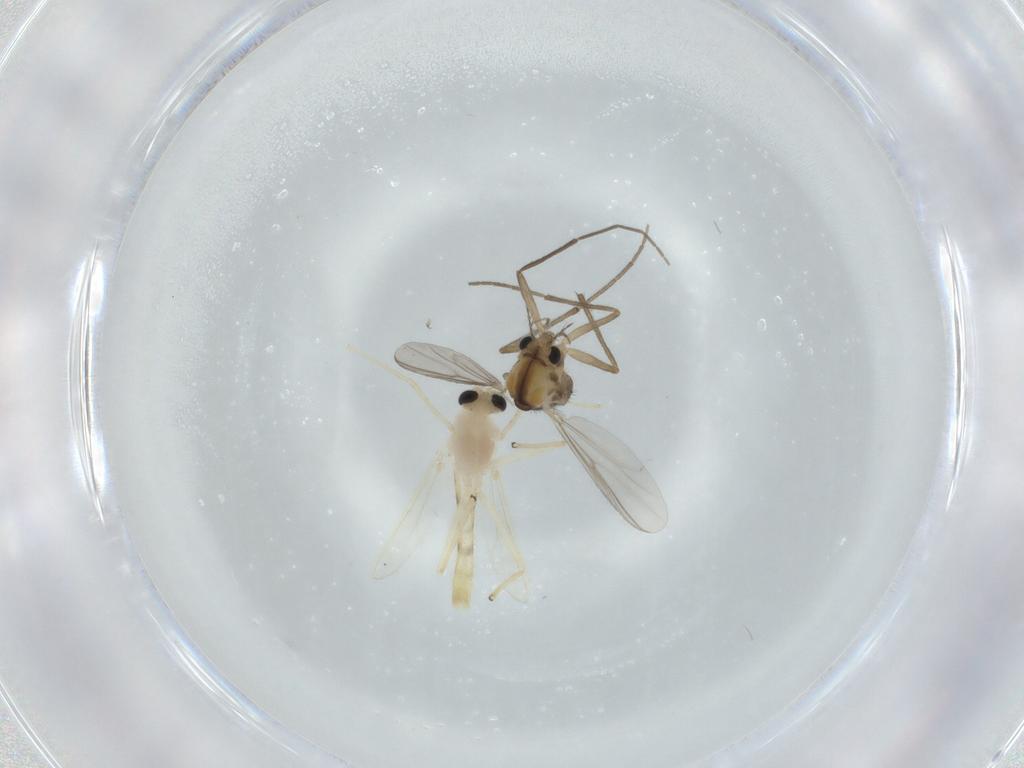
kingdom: Animalia
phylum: Arthropoda
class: Insecta
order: Diptera
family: Chironomidae
